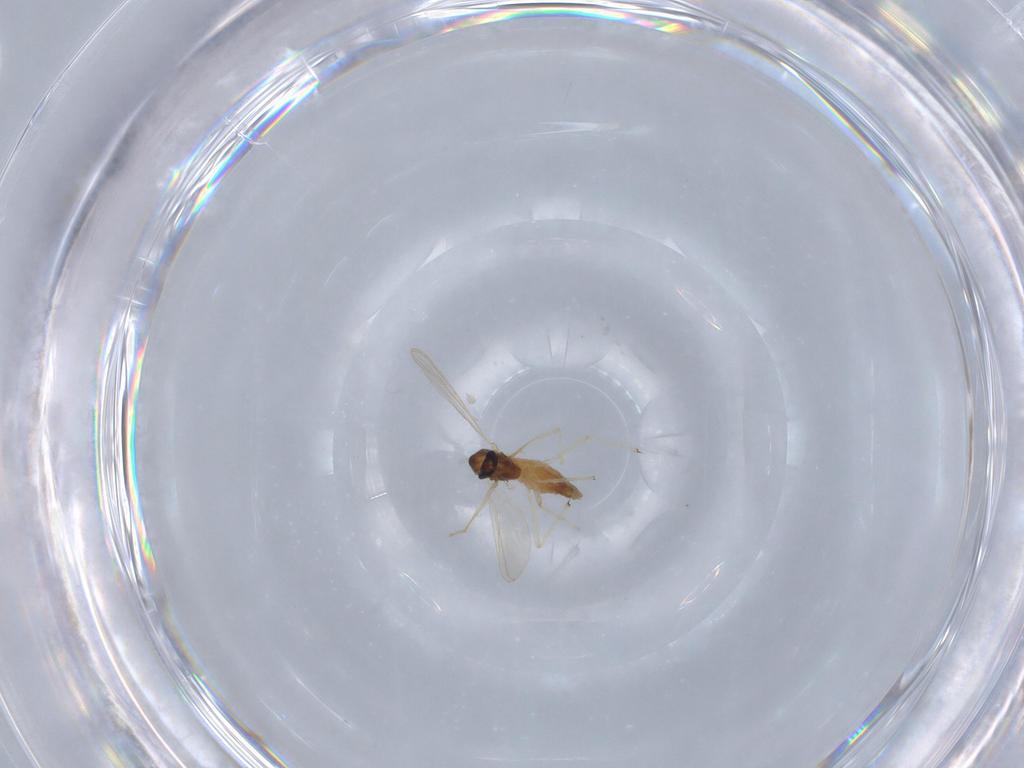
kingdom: Animalia
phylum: Arthropoda
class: Insecta
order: Diptera
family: Chironomidae
